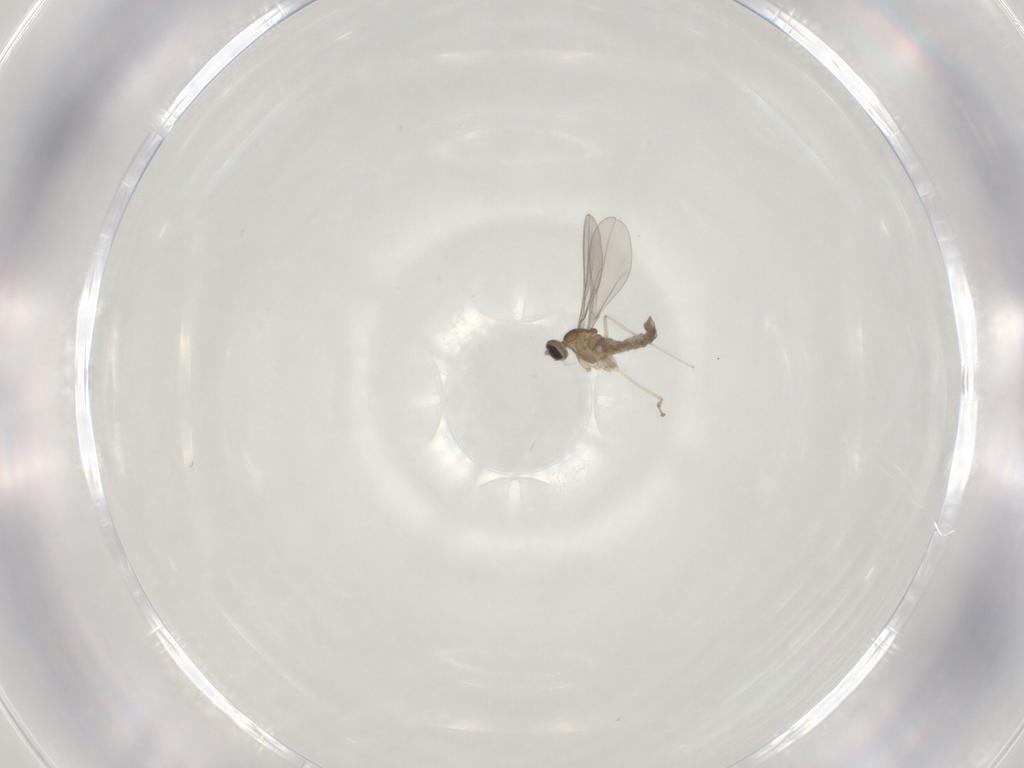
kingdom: Animalia
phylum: Arthropoda
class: Insecta
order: Diptera
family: Cecidomyiidae
